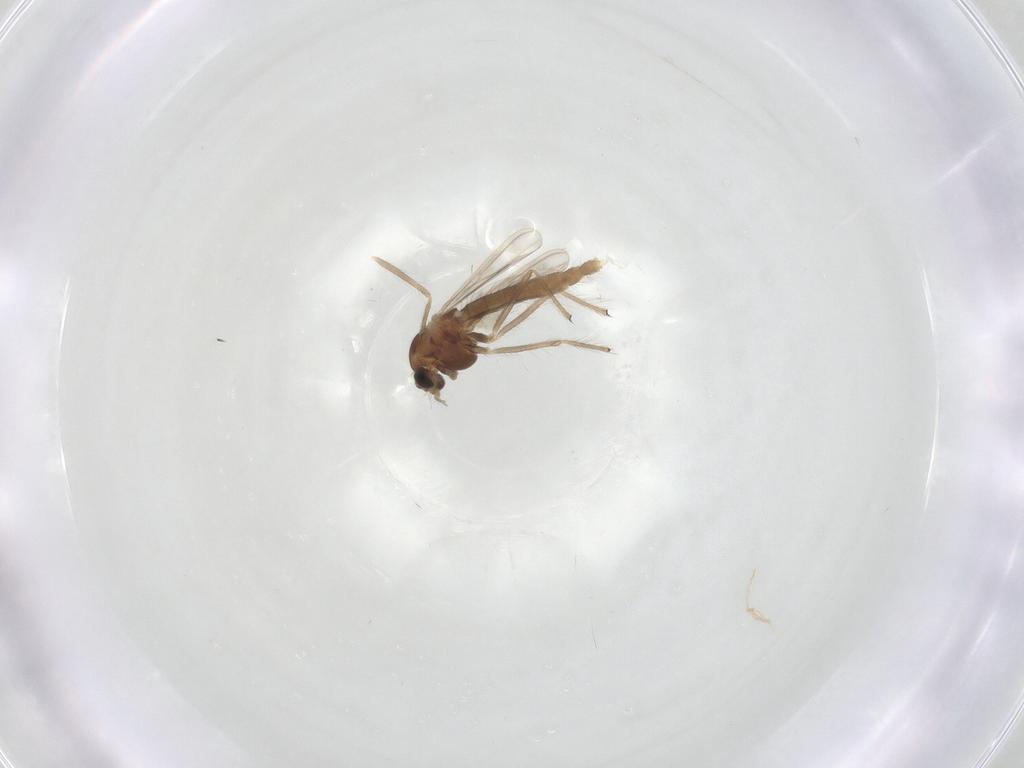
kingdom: Animalia
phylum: Arthropoda
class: Insecta
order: Diptera
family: Chironomidae
